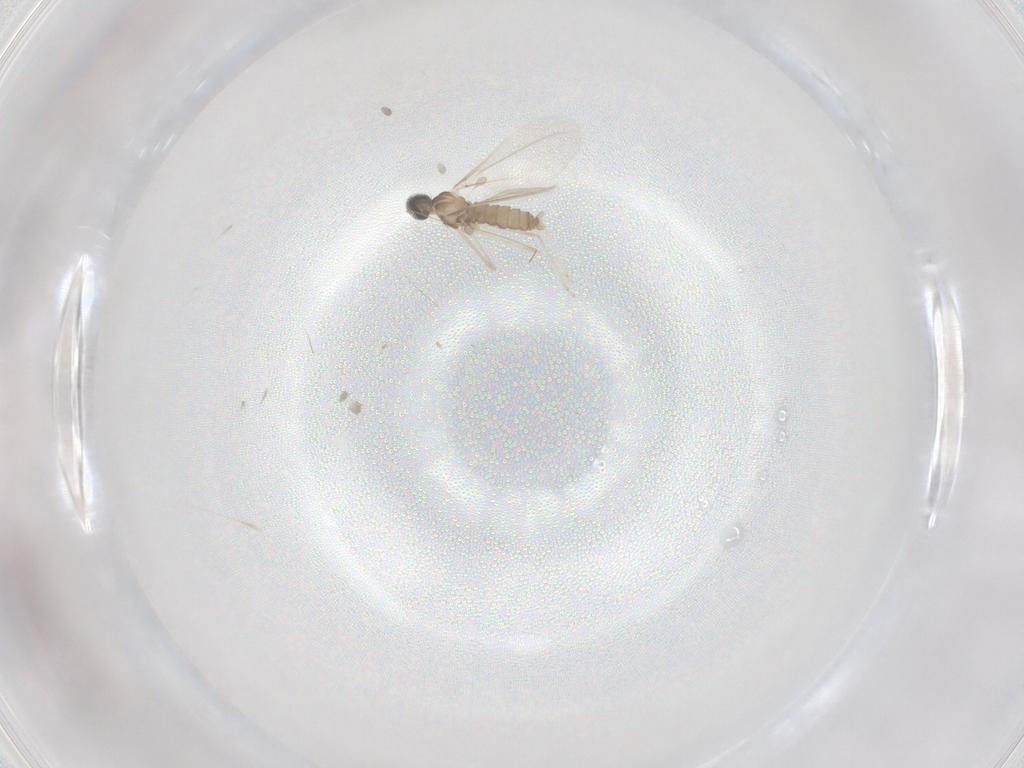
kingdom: Animalia
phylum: Arthropoda
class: Insecta
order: Diptera
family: Cecidomyiidae
